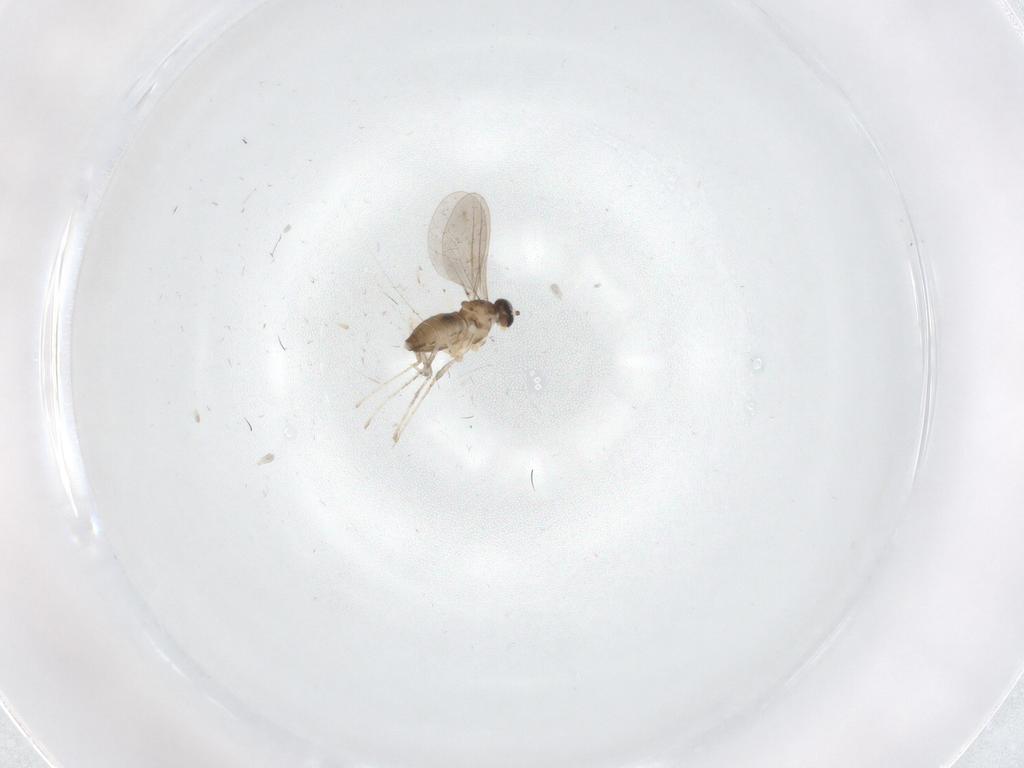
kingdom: Animalia
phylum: Arthropoda
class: Insecta
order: Diptera
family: Cecidomyiidae
